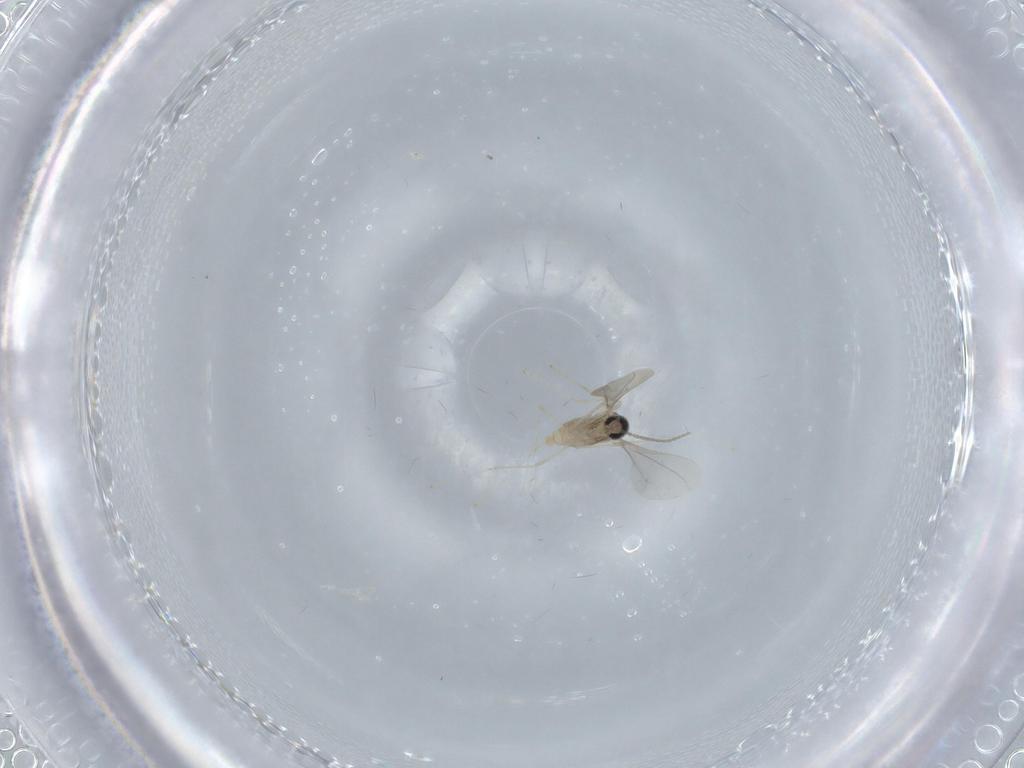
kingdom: Animalia
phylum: Arthropoda
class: Insecta
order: Diptera
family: Cecidomyiidae
